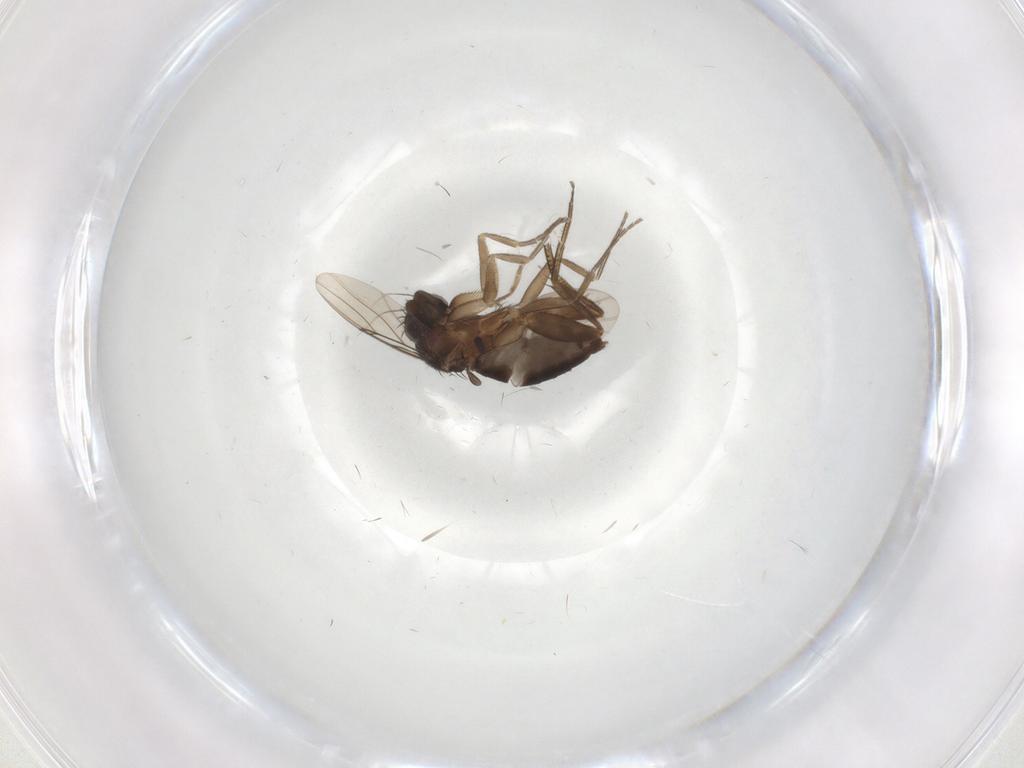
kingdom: Animalia
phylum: Arthropoda
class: Insecta
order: Diptera
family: Phoridae
